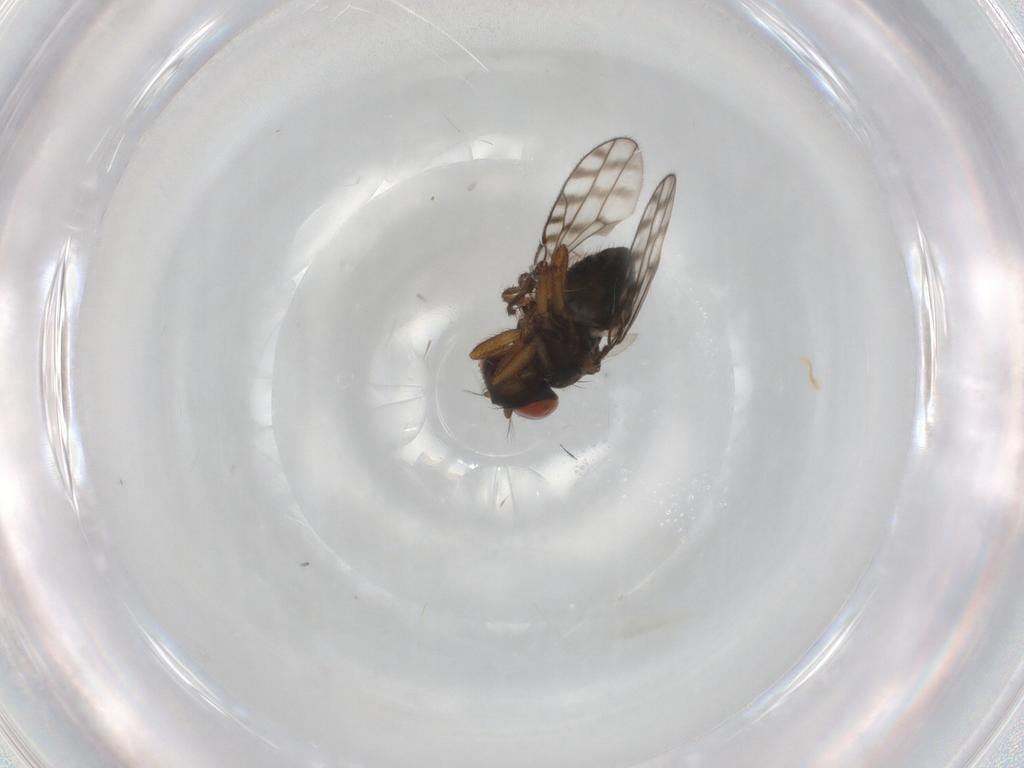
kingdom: Animalia
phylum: Arthropoda
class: Insecta
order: Diptera
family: Ephydridae
